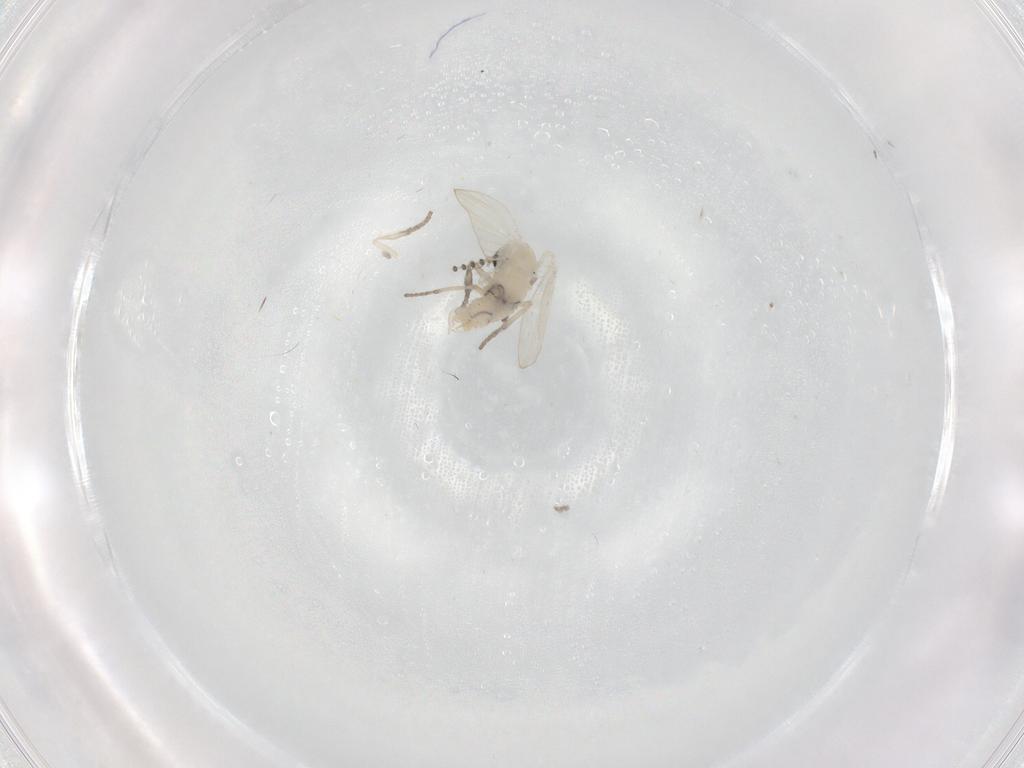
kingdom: Animalia
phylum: Arthropoda
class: Insecta
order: Diptera
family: Psychodidae
